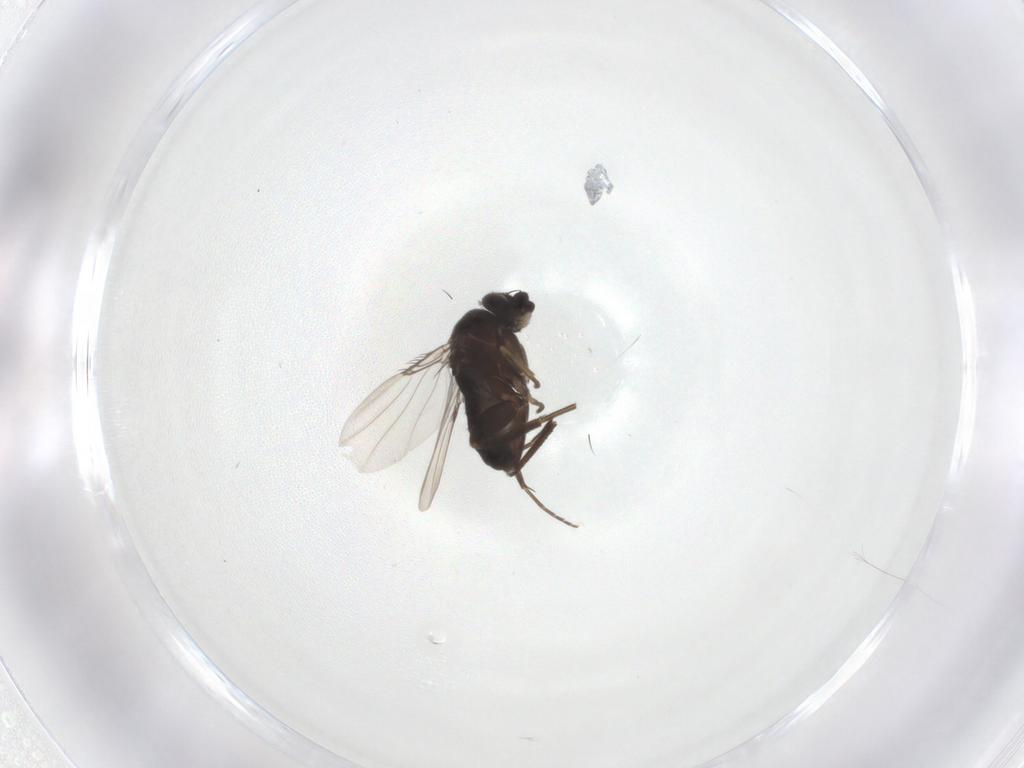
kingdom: Animalia
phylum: Arthropoda
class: Insecta
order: Diptera
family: Phoridae
